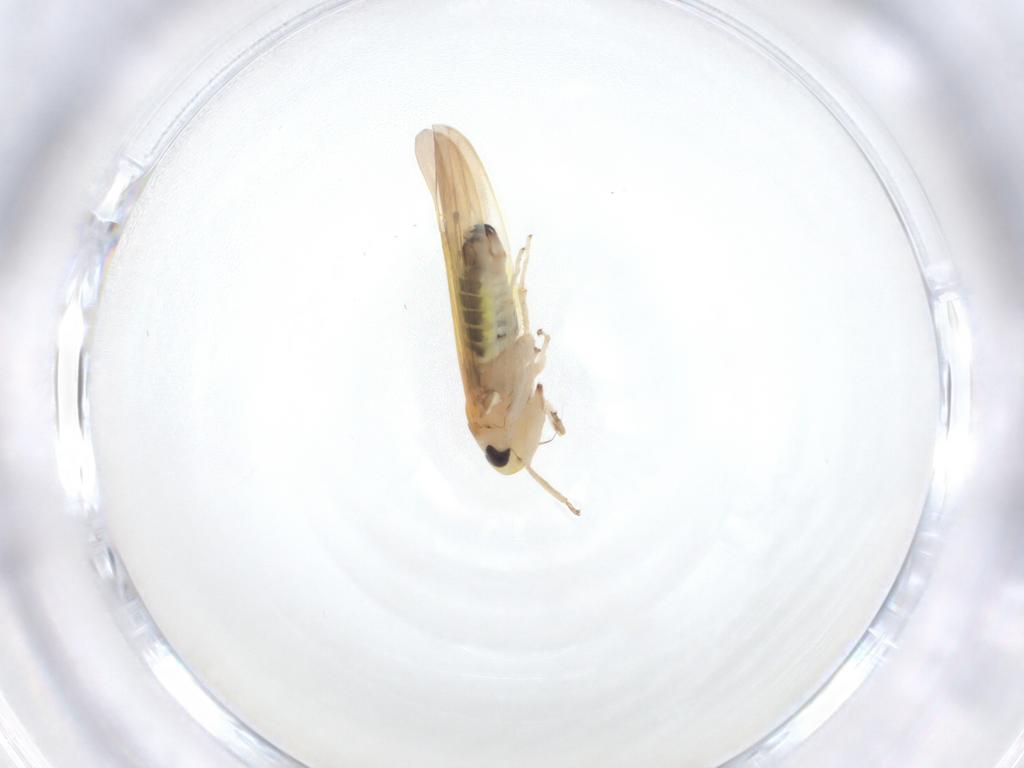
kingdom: Animalia
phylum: Arthropoda
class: Insecta
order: Hemiptera
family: Cicadellidae
